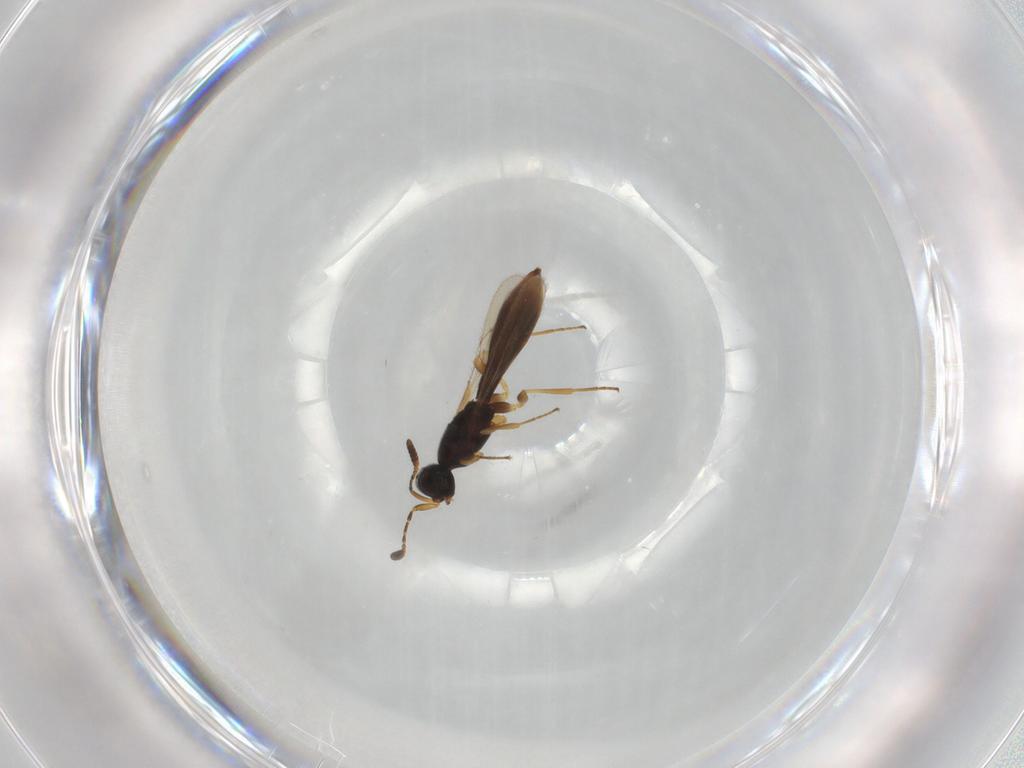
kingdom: Animalia
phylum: Arthropoda
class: Insecta
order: Hymenoptera
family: Scelionidae
